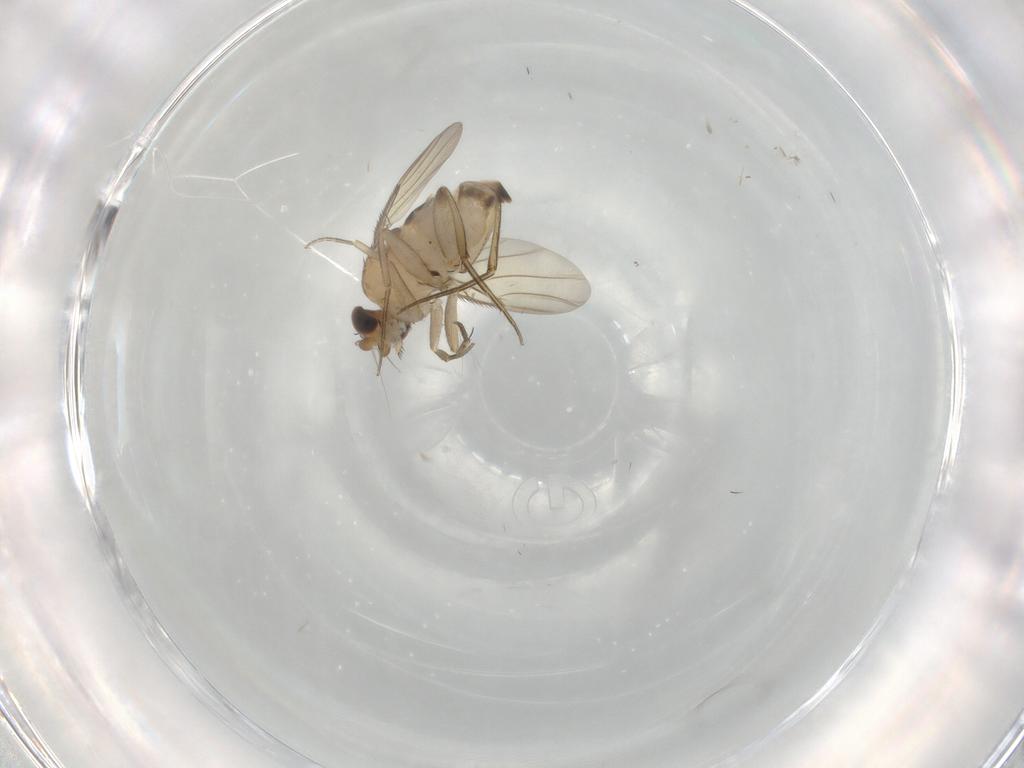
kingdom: Animalia
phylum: Arthropoda
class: Insecta
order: Diptera
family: Phoridae
